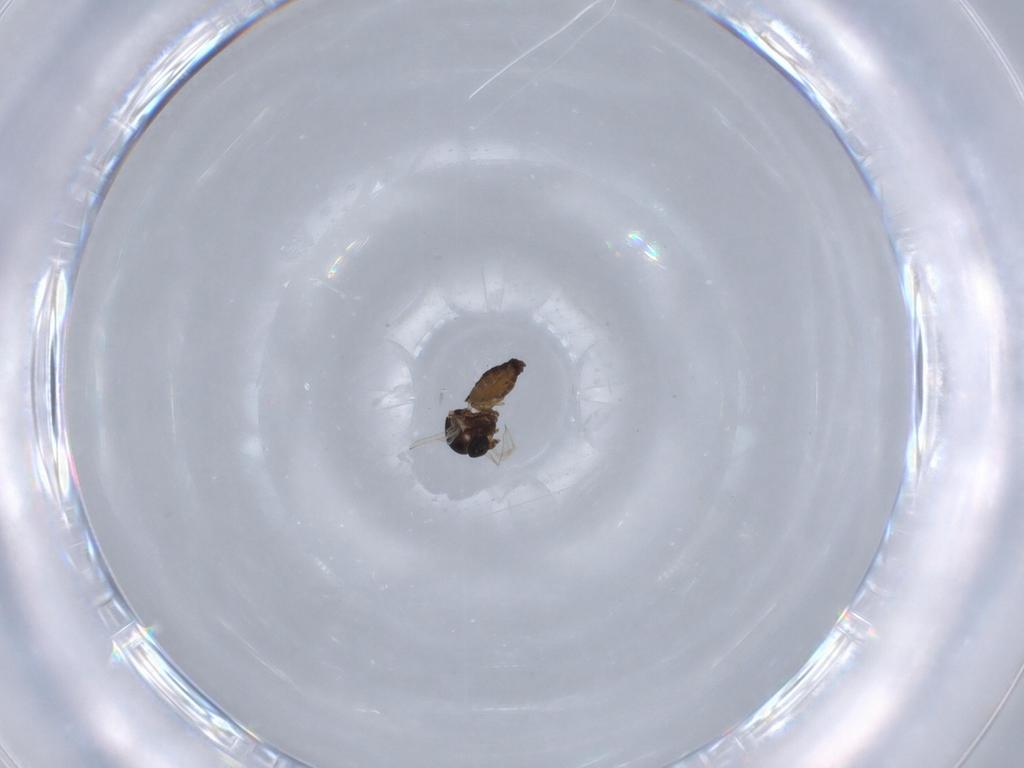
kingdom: Animalia
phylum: Arthropoda
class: Insecta
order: Diptera
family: Ceratopogonidae
